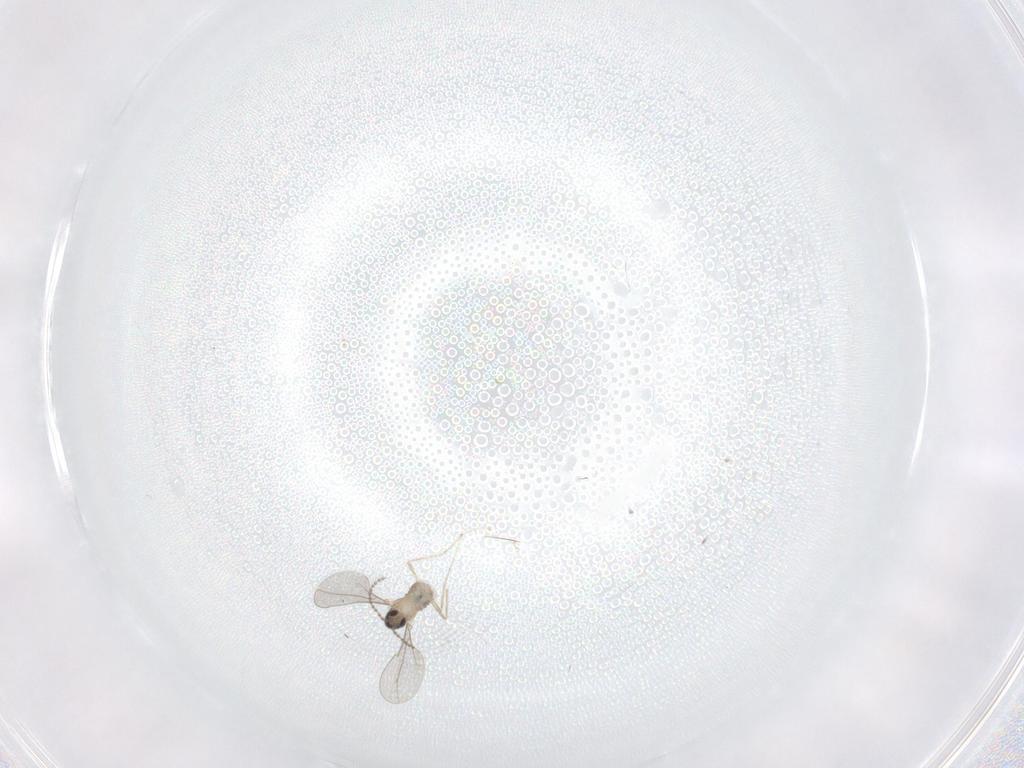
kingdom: Animalia
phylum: Arthropoda
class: Insecta
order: Diptera
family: Cecidomyiidae
